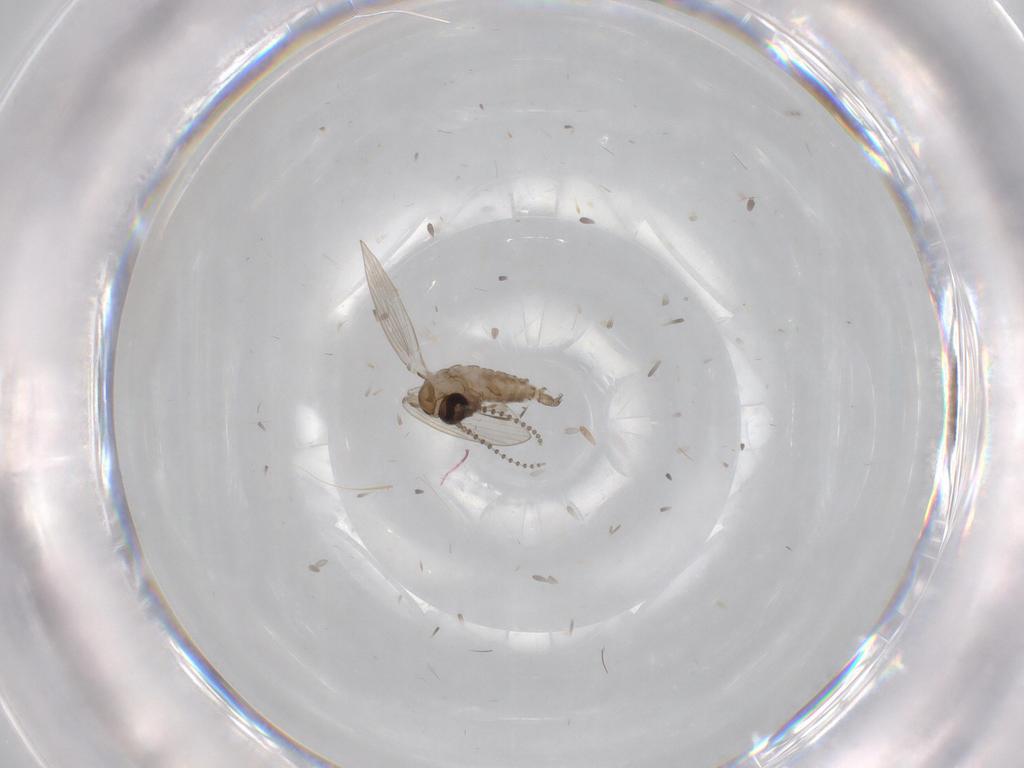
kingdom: Animalia
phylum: Arthropoda
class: Insecta
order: Diptera
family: Psychodidae
